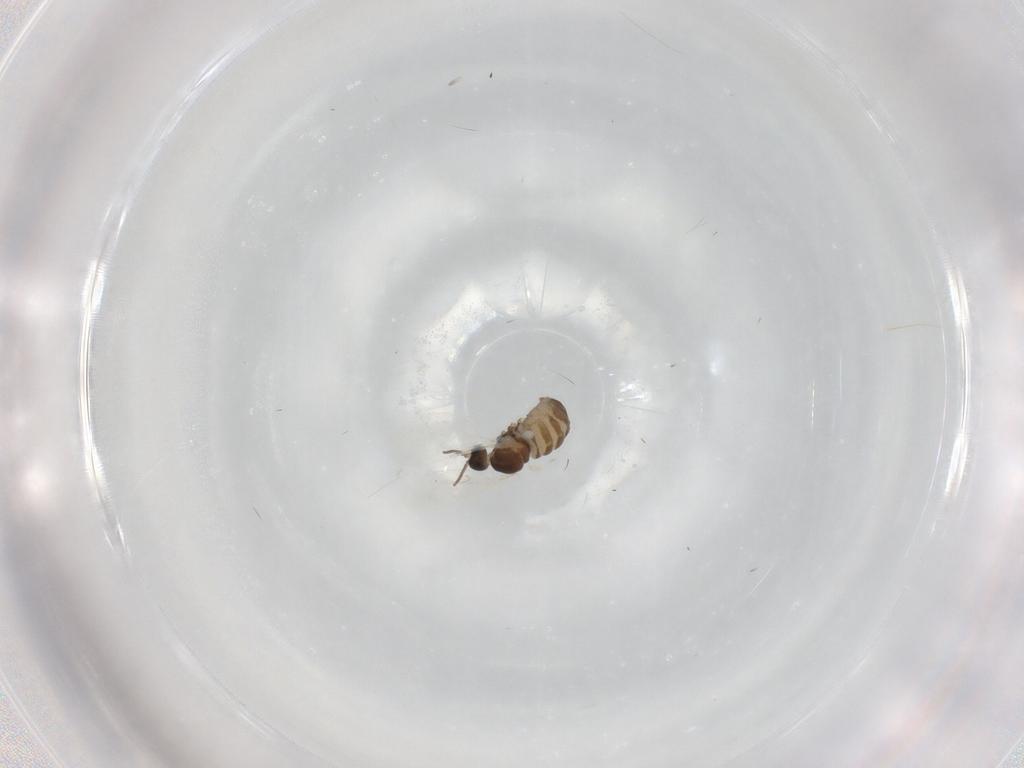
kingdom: Animalia
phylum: Arthropoda
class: Insecta
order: Diptera
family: Cecidomyiidae
